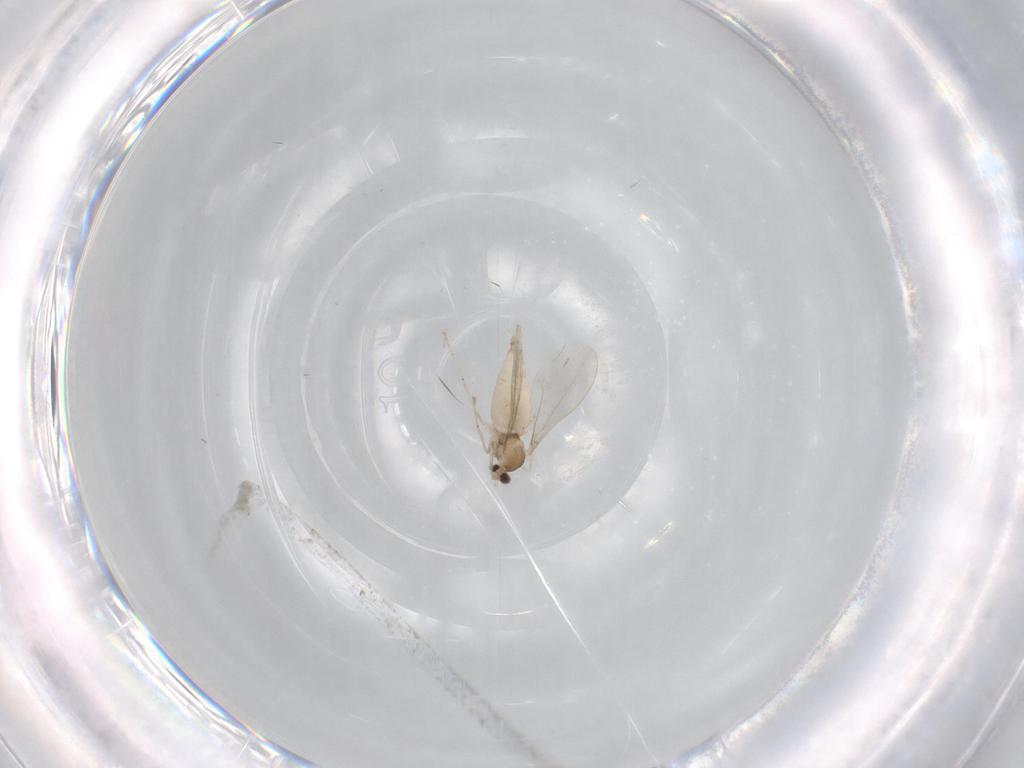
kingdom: Animalia
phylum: Arthropoda
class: Insecta
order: Diptera
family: Cecidomyiidae
